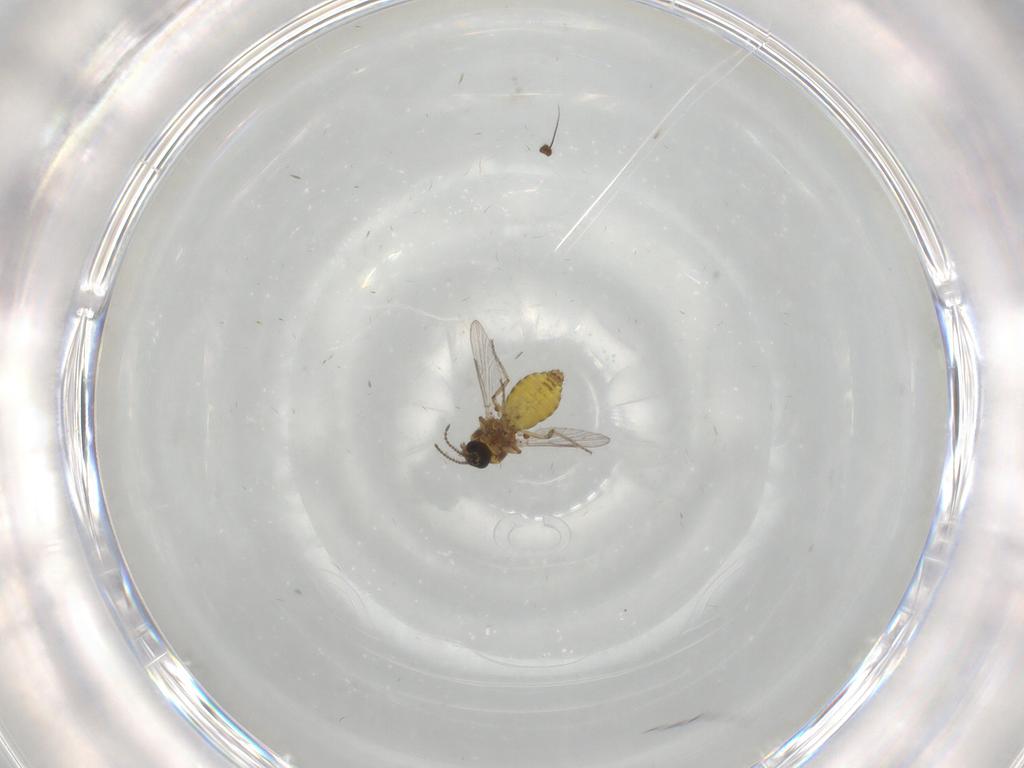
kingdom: Animalia
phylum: Arthropoda
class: Insecta
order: Diptera
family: Ceratopogonidae
